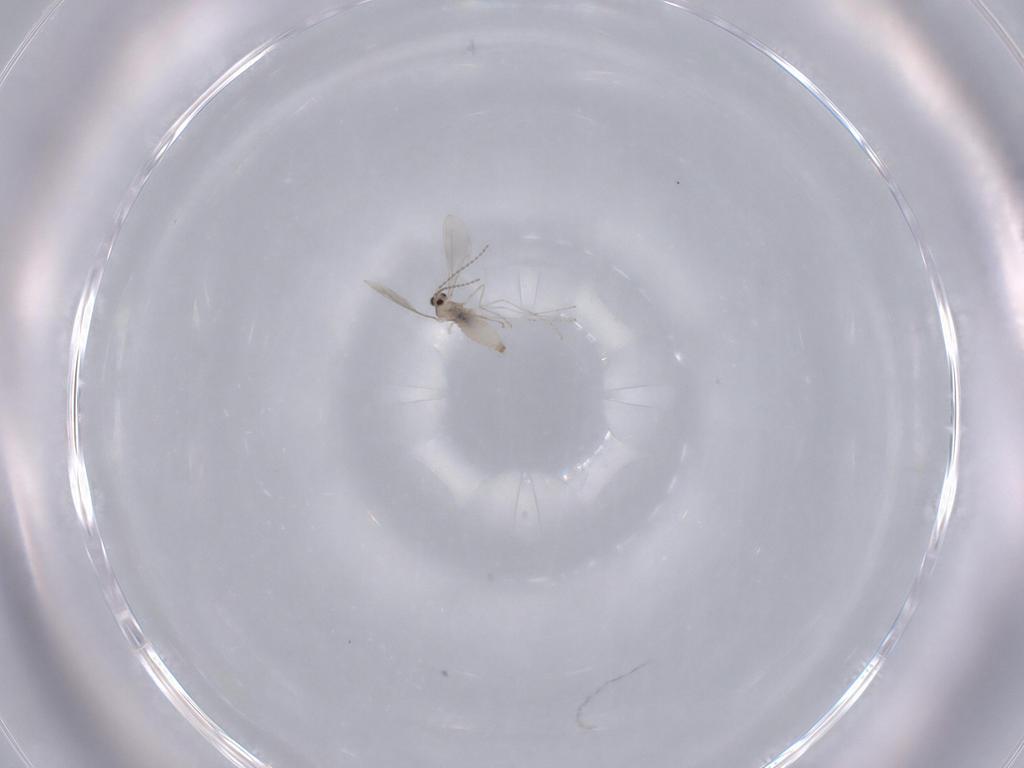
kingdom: Animalia
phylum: Arthropoda
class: Insecta
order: Diptera
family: Chironomidae
